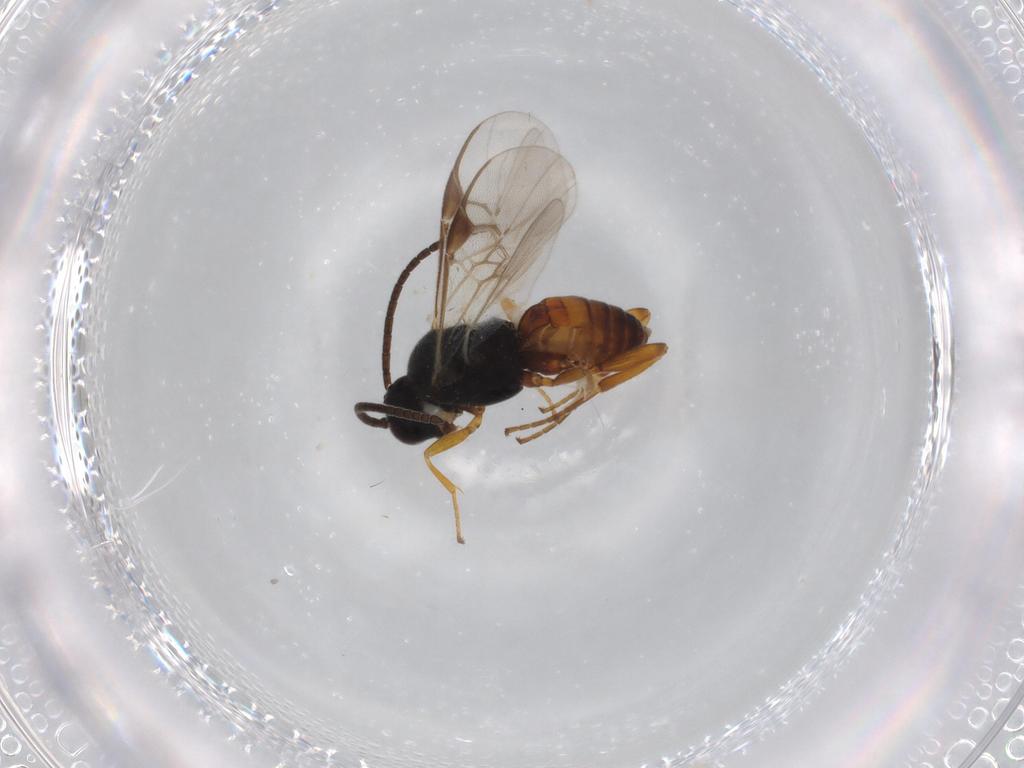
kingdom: Animalia
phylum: Arthropoda
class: Insecta
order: Hymenoptera
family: Braconidae
